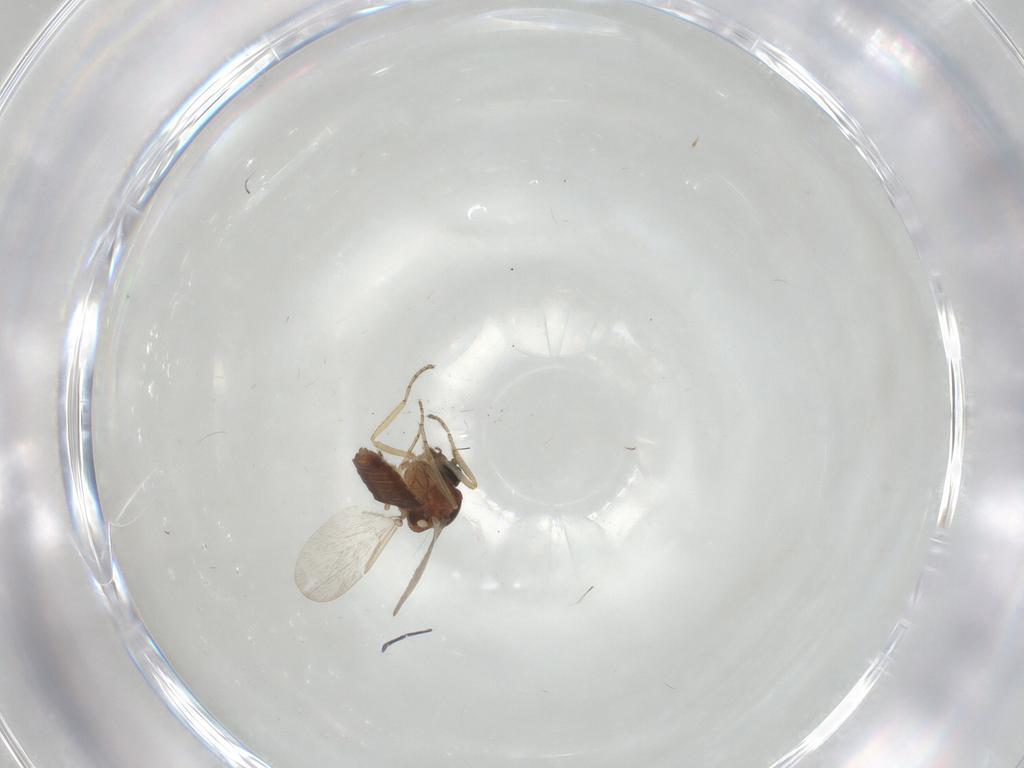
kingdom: Animalia
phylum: Arthropoda
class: Insecta
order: Diptera
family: Ceratopogonidae
